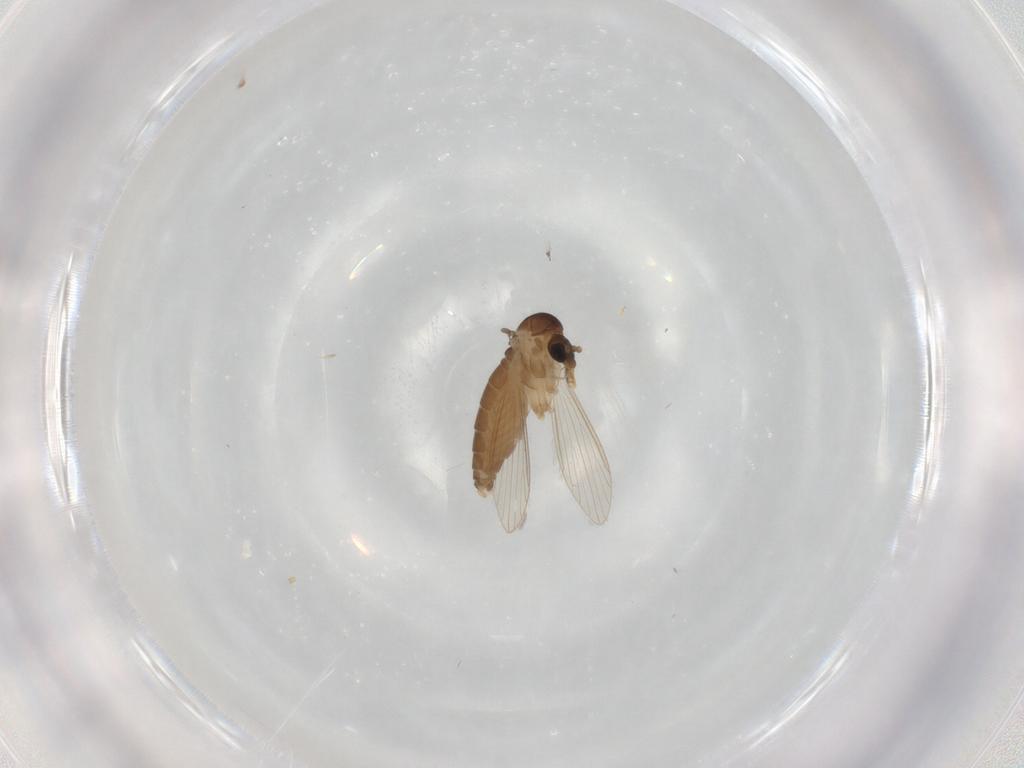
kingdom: Animalia
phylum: Arthropoda
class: Insecta
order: Diptera
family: Psychodidae
